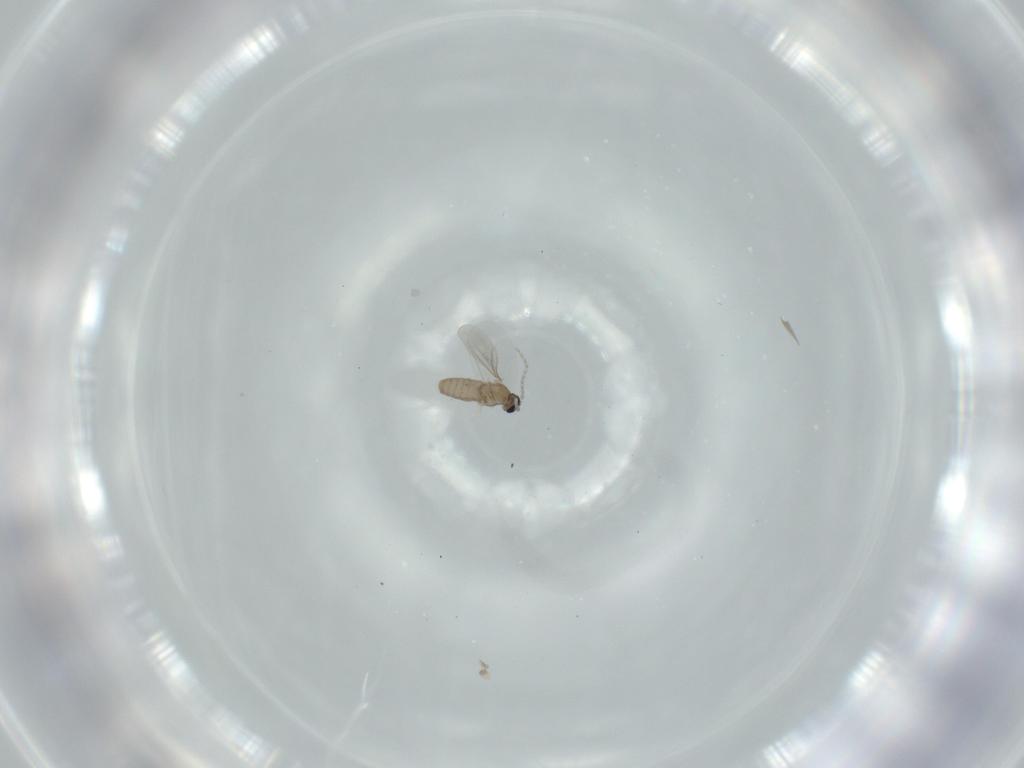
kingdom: Animalia
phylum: Arthropoda
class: Insecta
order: Diptera
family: Cecidomyiidae
